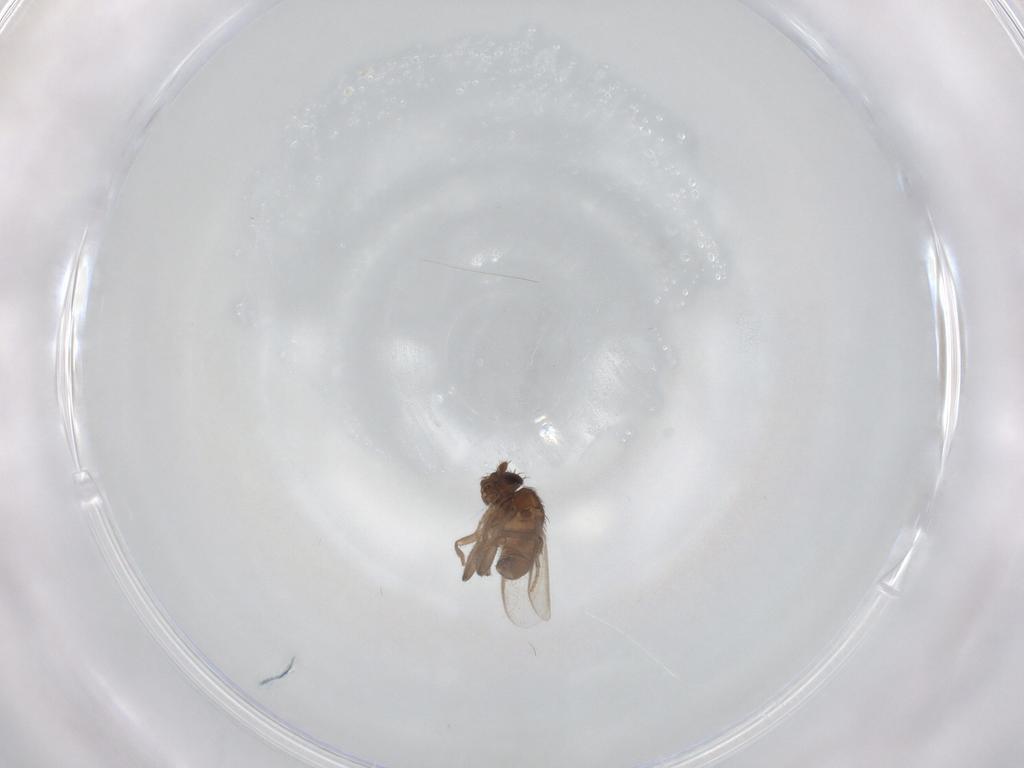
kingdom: Animalia
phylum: Arthropoda
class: Insecta
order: Diptera
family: Sphaeroceridae
